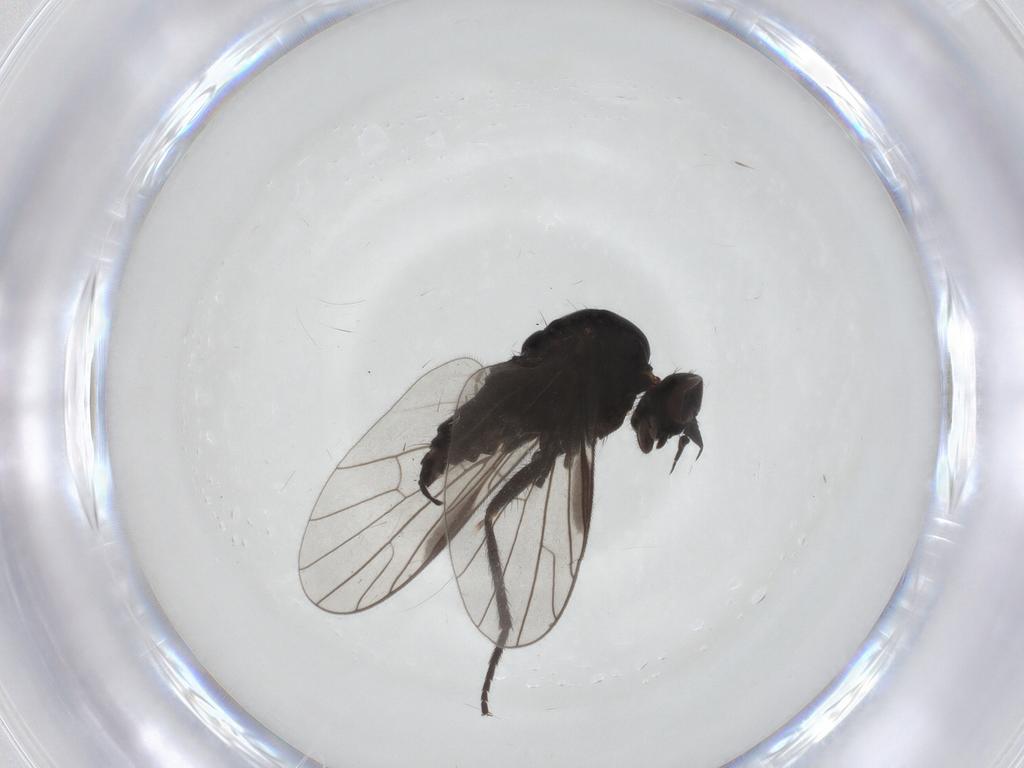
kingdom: Animalia
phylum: Arthropoda
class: Insecta
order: Diptera
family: Empididae
